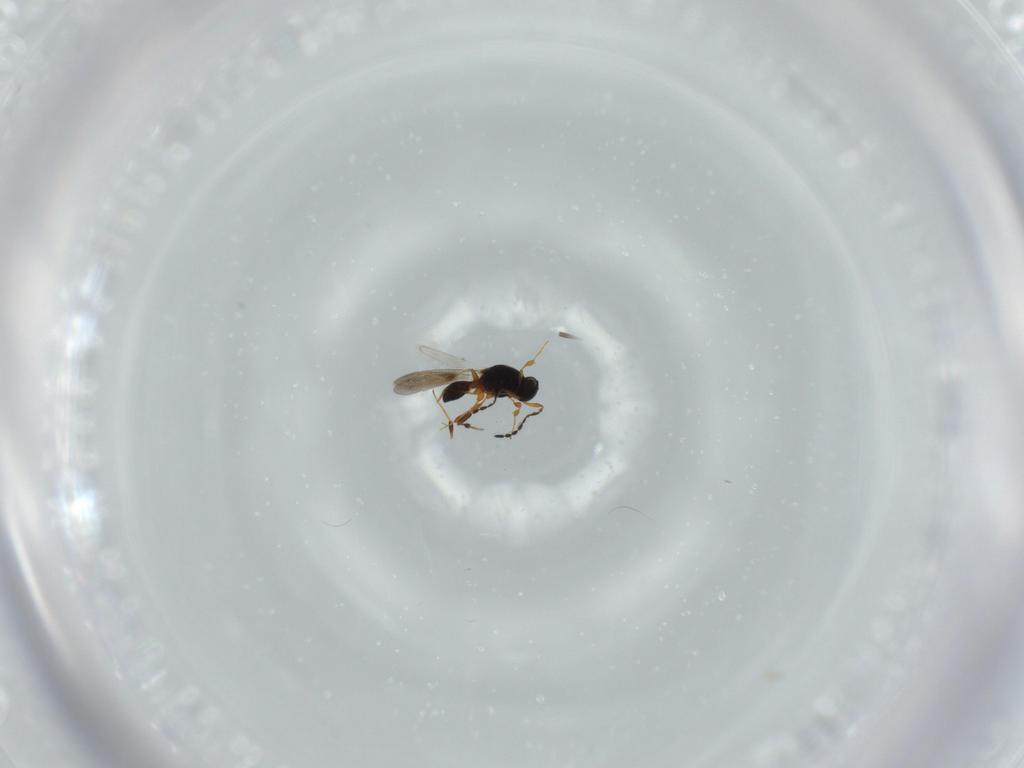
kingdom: Animalia
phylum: Arthropoda
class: Insecta
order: Hymenoptera
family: Platygastridae
